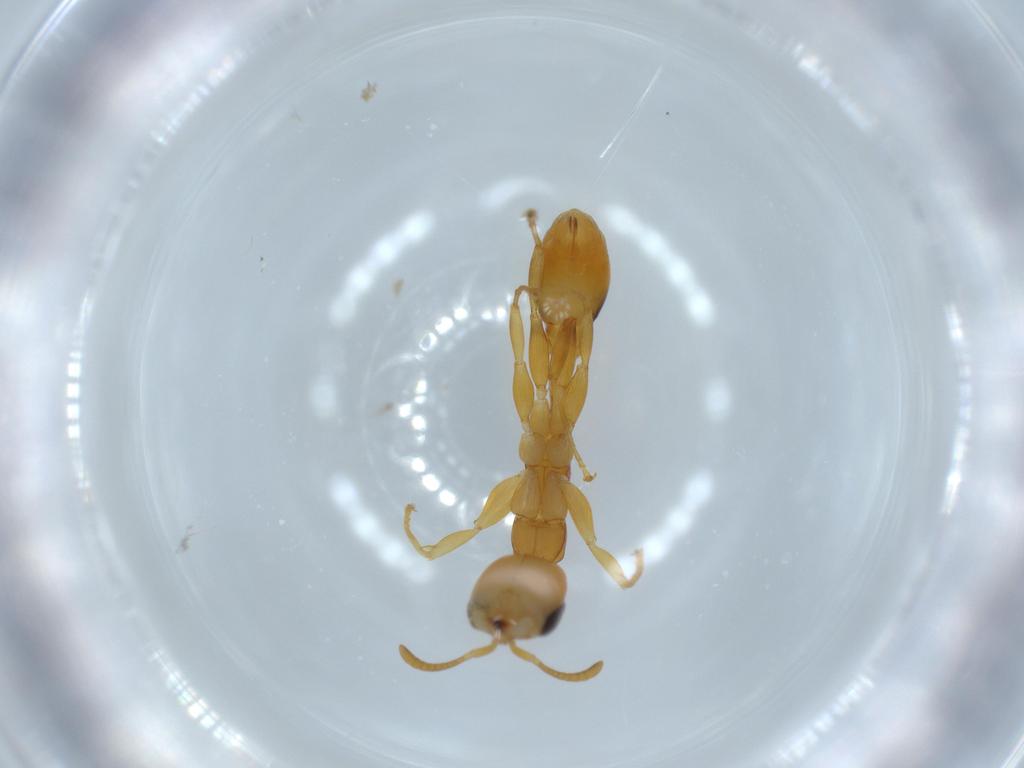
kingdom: Animalia
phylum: Arthropoda
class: Insecta
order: Hymenoptera
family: Formicidae
